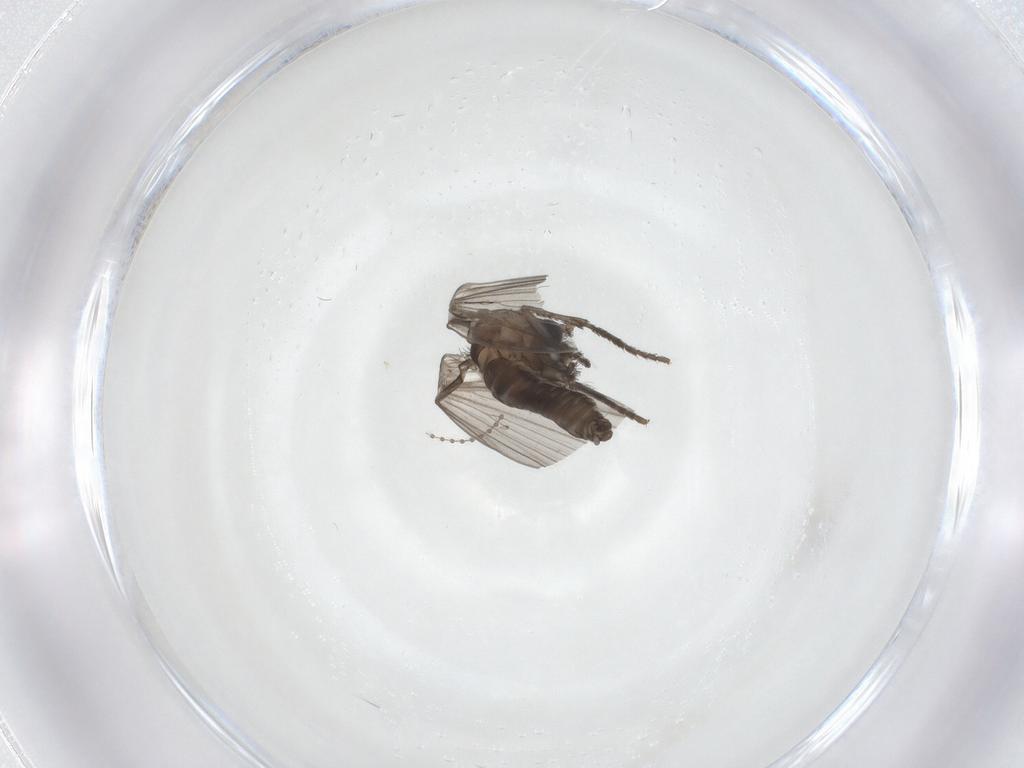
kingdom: Animalia
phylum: Arthropoda
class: Insecta
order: Diptera
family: Psychodidae
